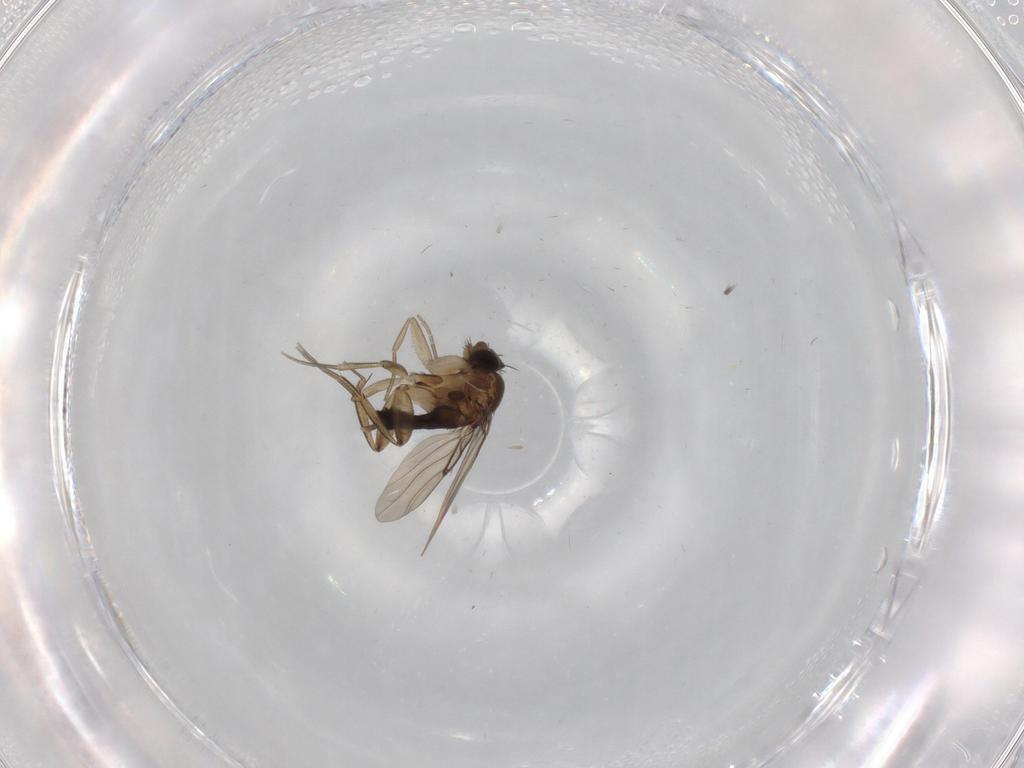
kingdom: Animalia
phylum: Arthropoda
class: Insecta
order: Diptera
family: Phoridae
